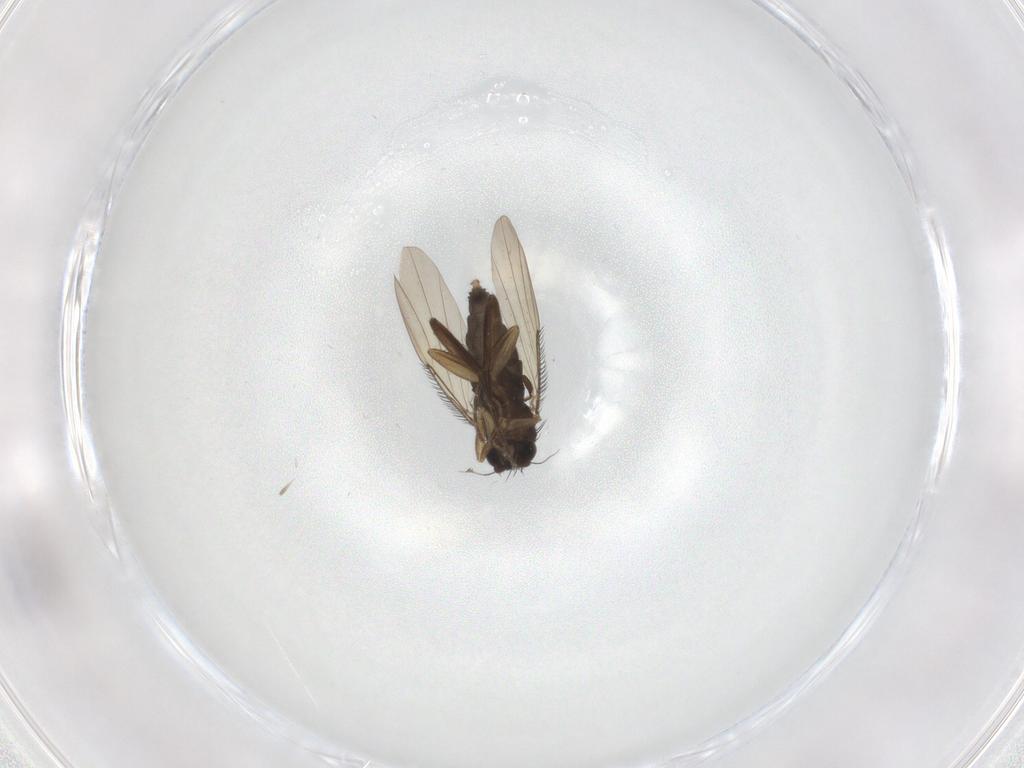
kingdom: Animalia
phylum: Arthropoda
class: Insecta
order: Diptera
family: Phoridae
